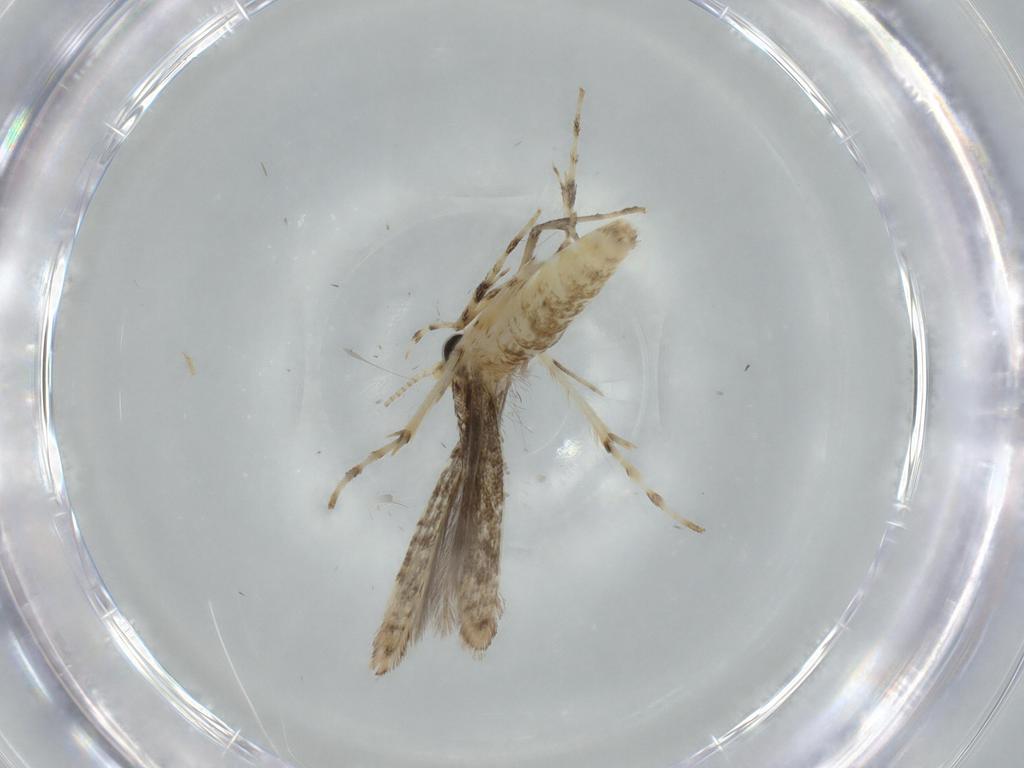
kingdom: Animalia
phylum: Arthropoda
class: Insecta
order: Lepidoptera
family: Gracillariidae
